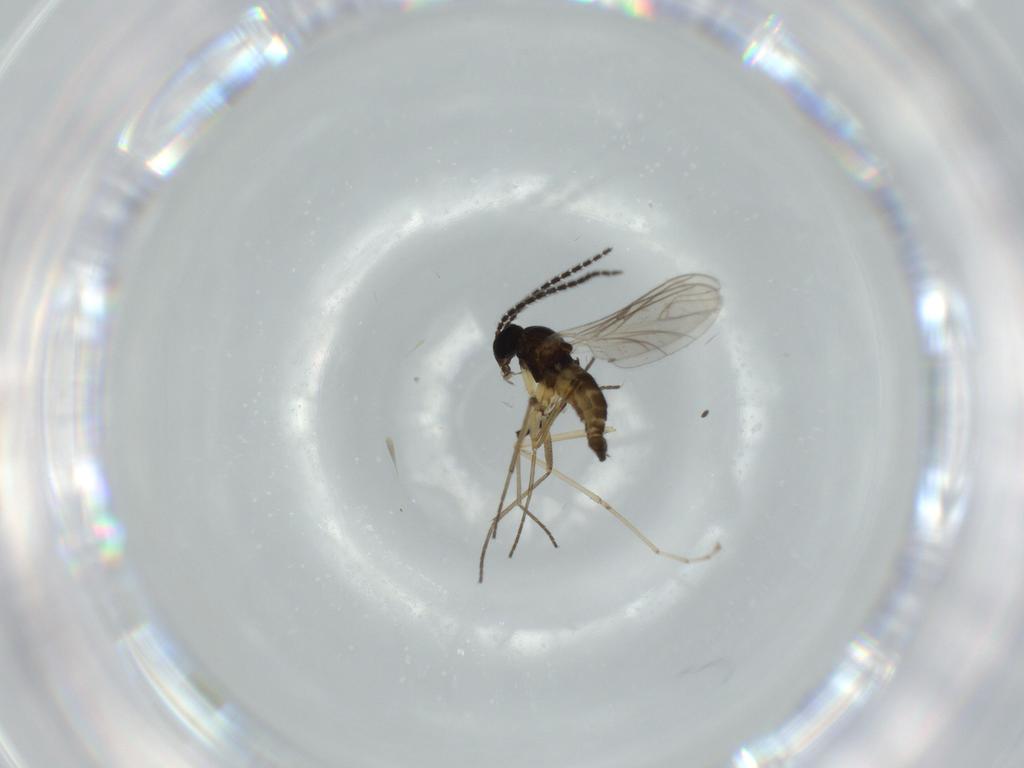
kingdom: Animalia
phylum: Arthropoda
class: Insecta
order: Diptera
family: Sciaridae
